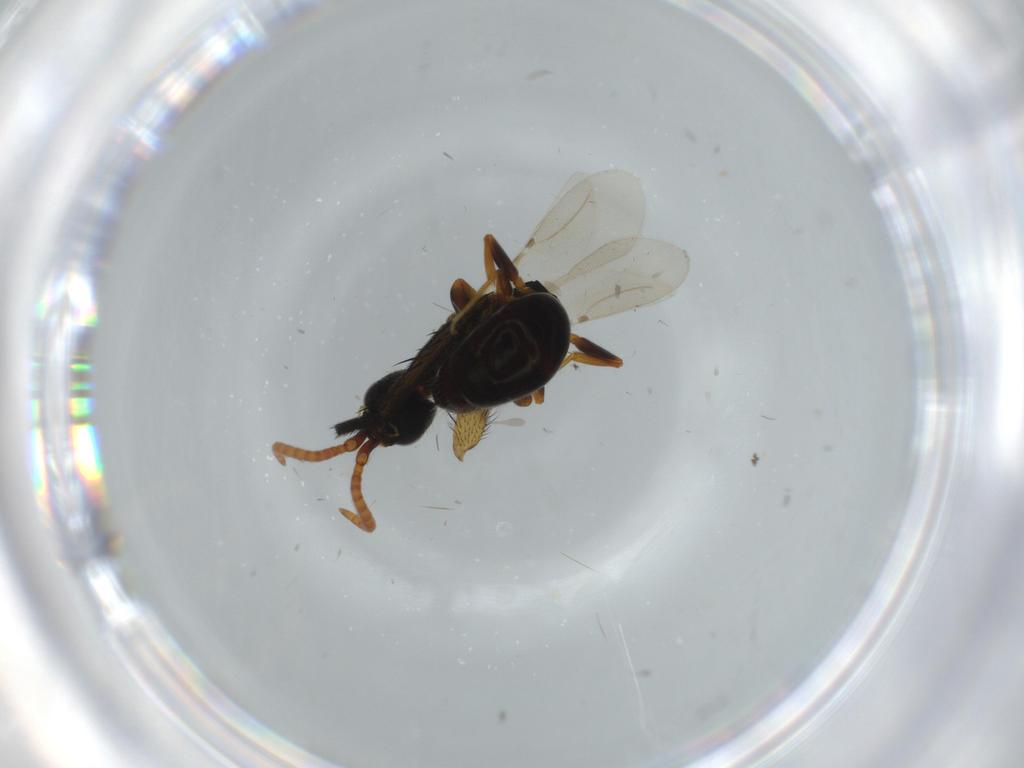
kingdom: Animalia
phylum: Arthropoda
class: Insecta
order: Hymenoptera
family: Bethylidae
